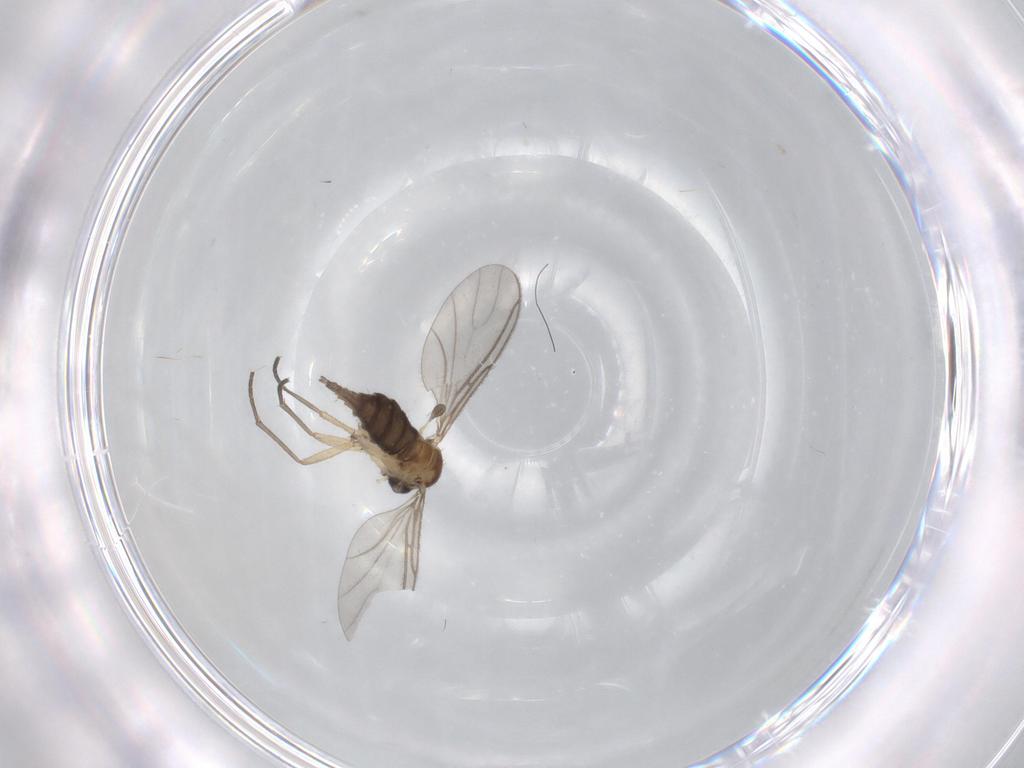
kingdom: Animalia
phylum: Arthropoda
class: Insecta
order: Diptera
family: Sciaridae
